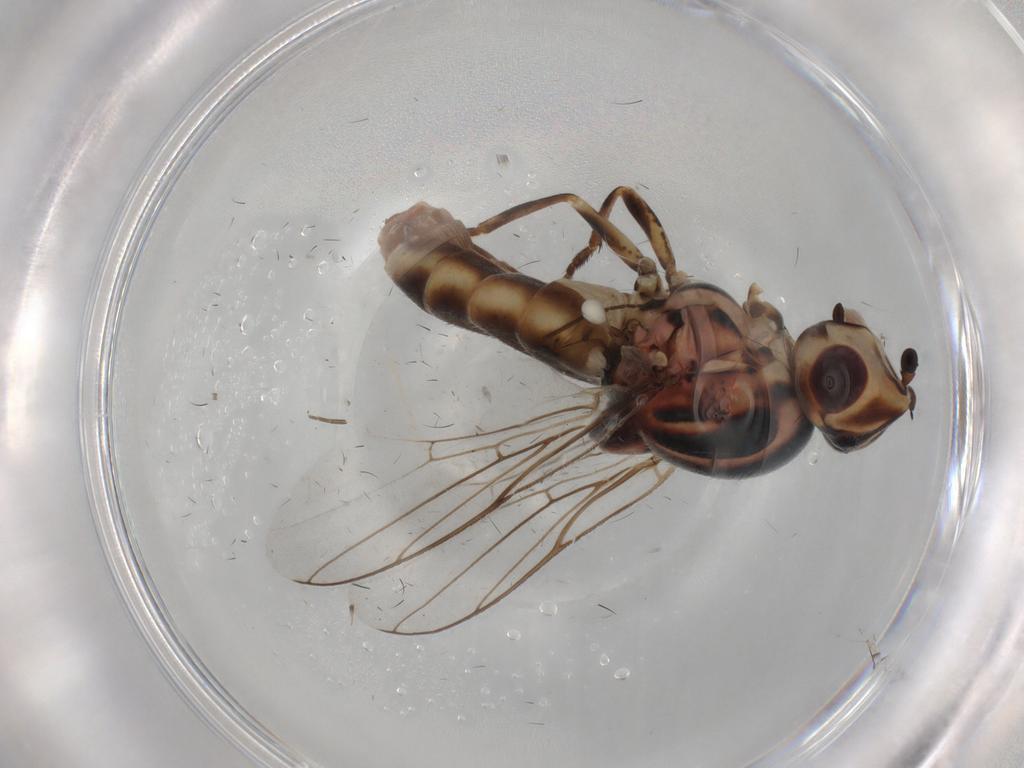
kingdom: Animalia
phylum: Arthropoda
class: Insecta
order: Diptera
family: Chloropidae
